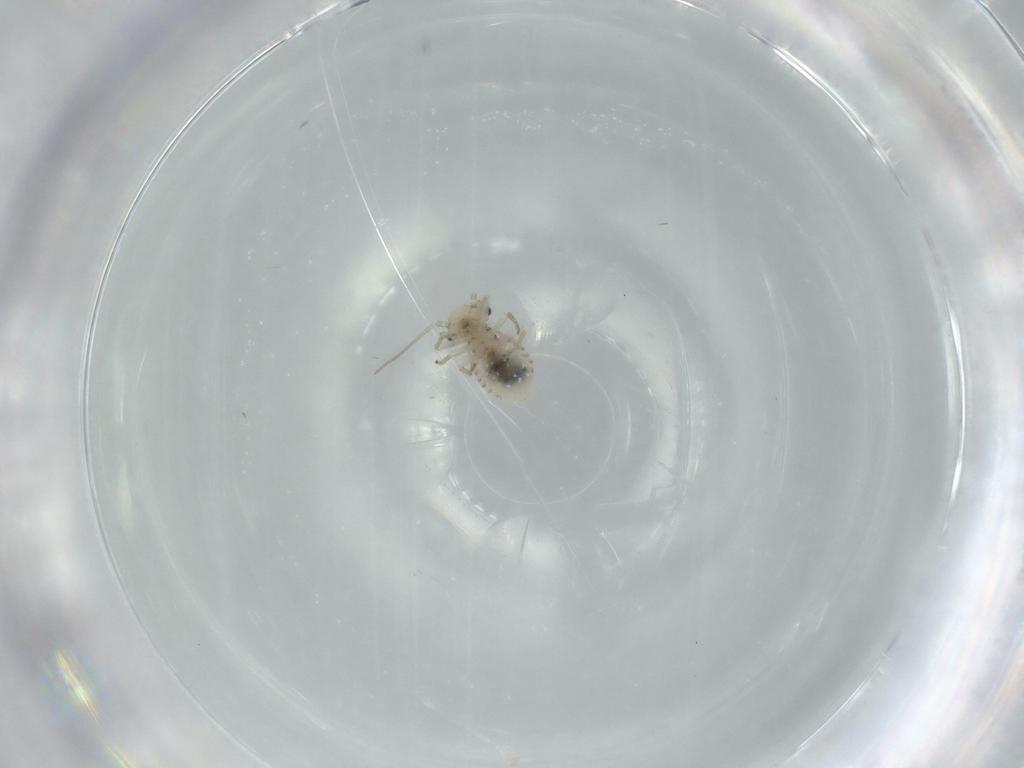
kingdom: Animalia
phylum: Arthropoda
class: Insecta
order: Psocodea
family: Lachesillidae
